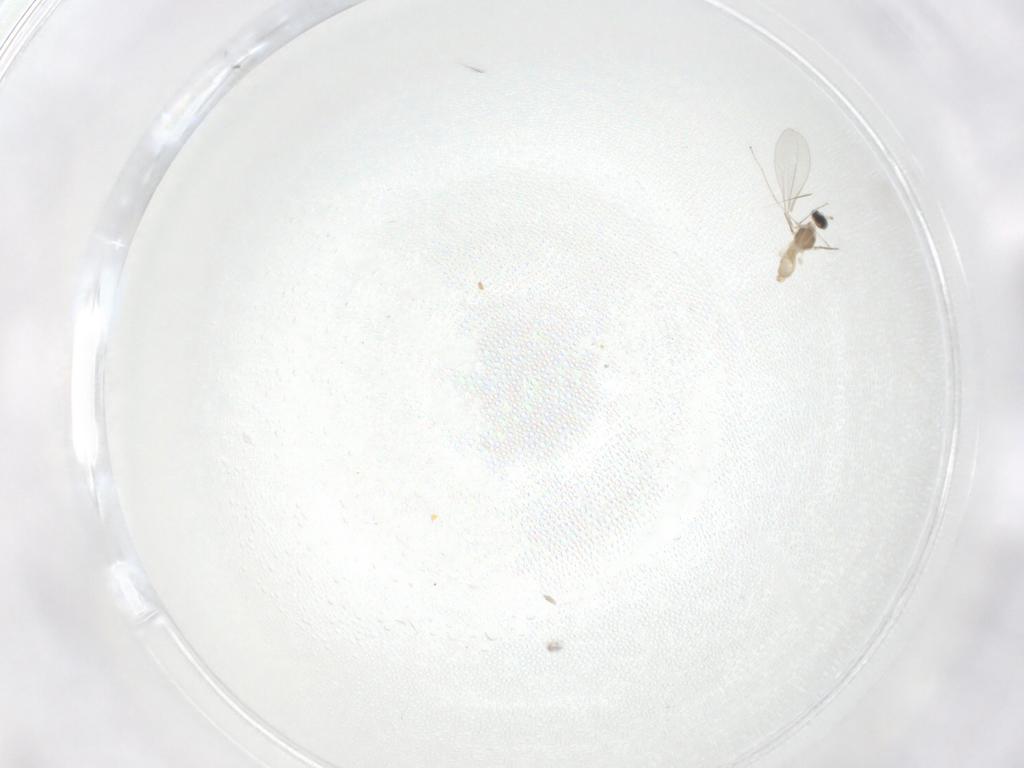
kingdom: Animalia
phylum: Arthropoda
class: Insecta
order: Diptera
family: Cecidomyiidae
